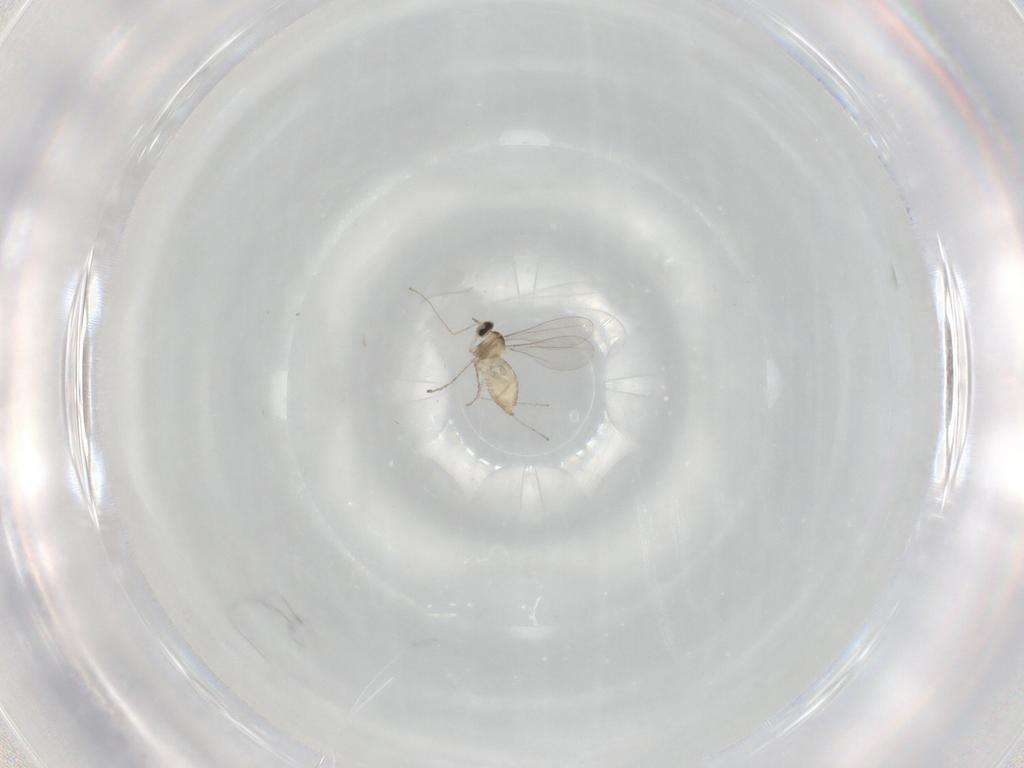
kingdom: Animalia
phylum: Arthropoda
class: Insecta
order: Diptera
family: Cecidomyiidae
